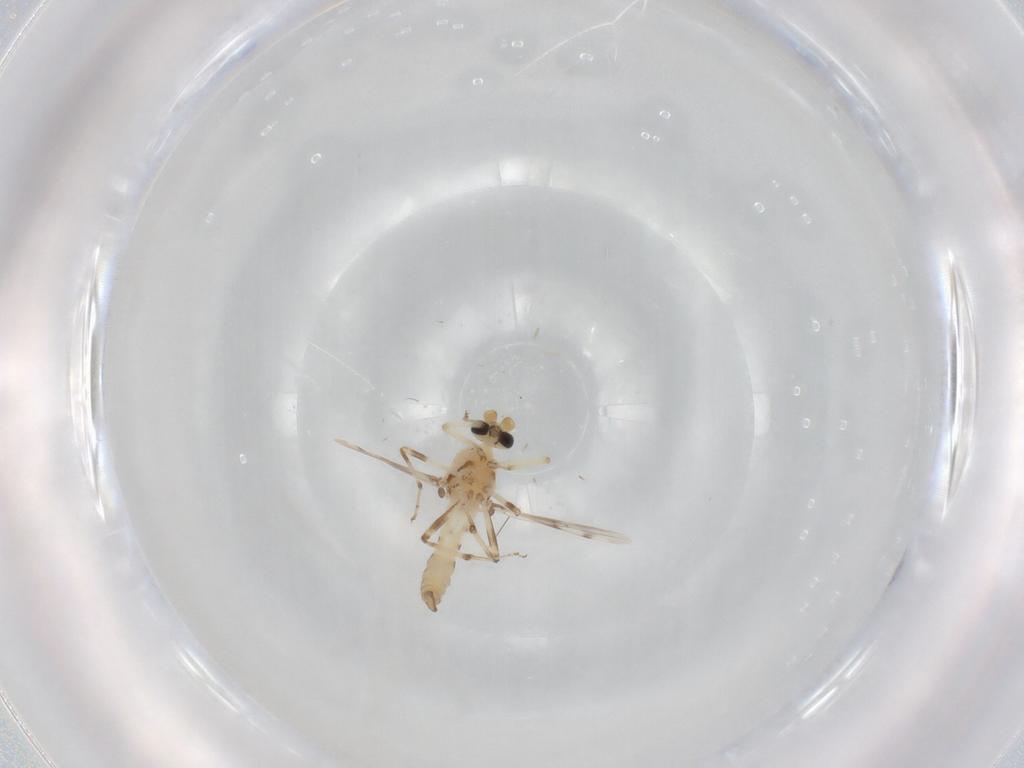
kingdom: Animalia
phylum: Arthropoda
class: Insecta
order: Diptera
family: Ceratopogonidae
